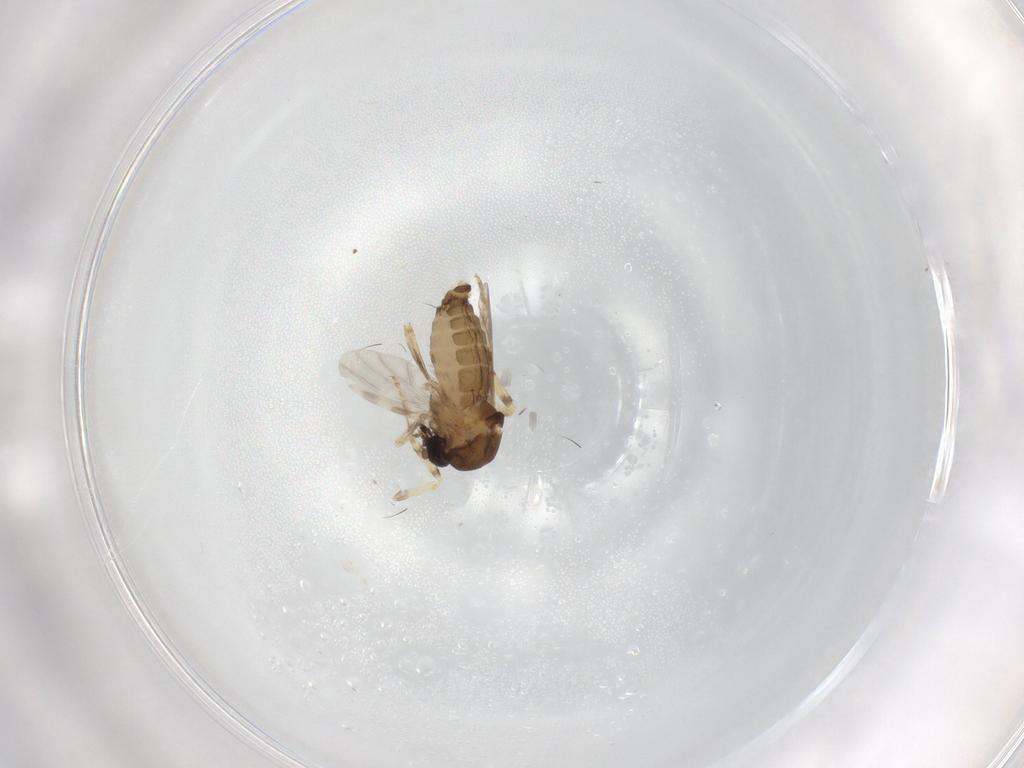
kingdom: Animalia
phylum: Arthropoda
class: Insecta
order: Diptera
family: Ceratopogonidae
